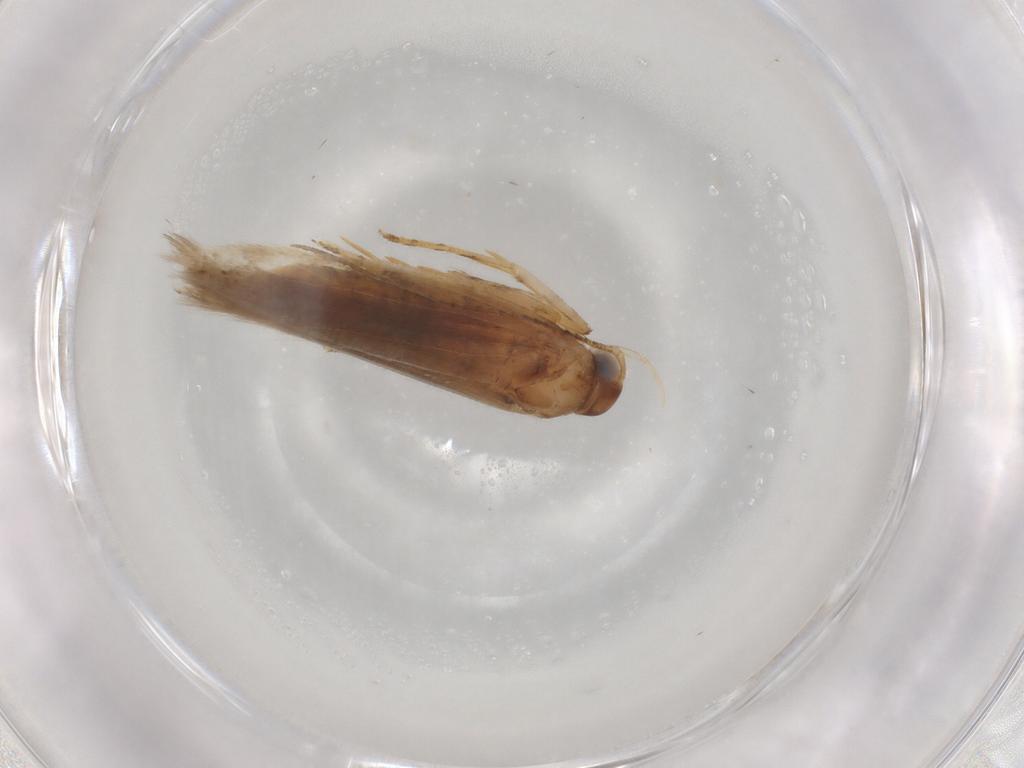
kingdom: Animalia
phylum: Arthropoda
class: Insecta
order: Lepidoptera
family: Gelechiidae
